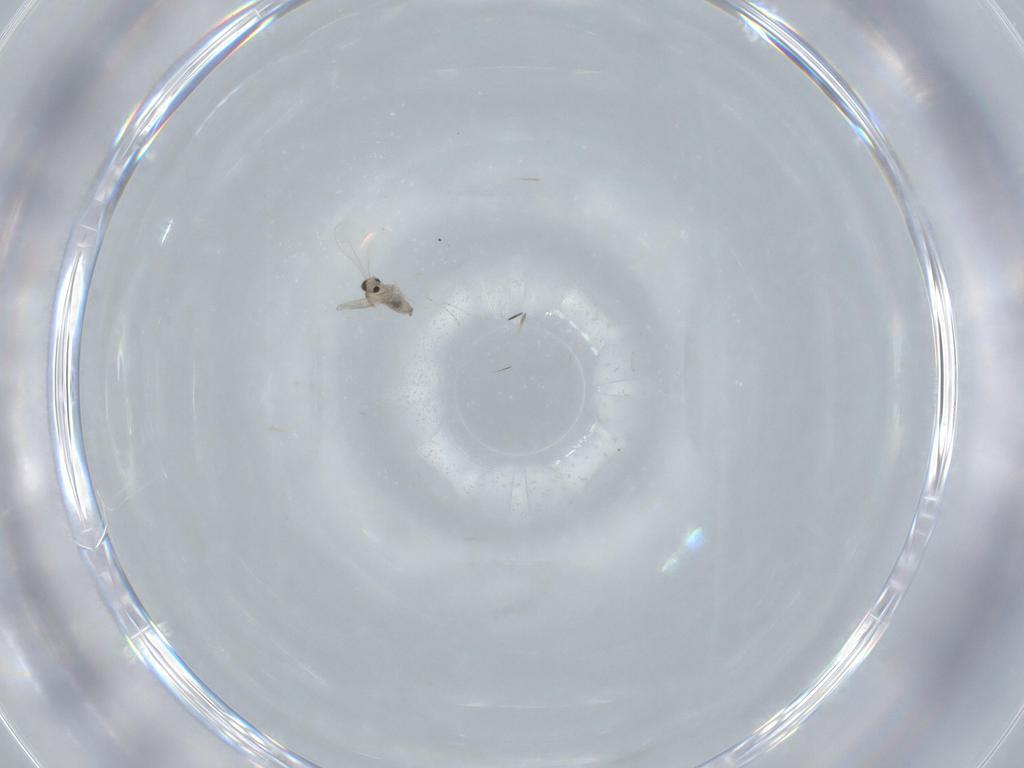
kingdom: Animalia
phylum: Arthropoda
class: Insecta
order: Diptera
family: Cecidomyiidae
